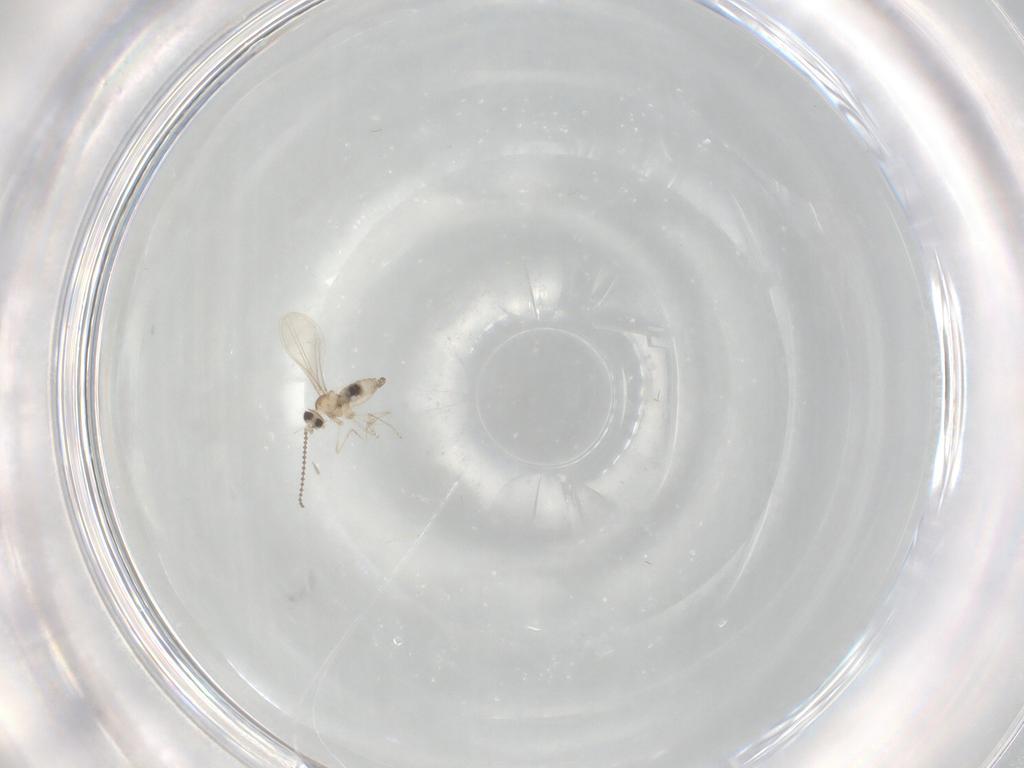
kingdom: Animalia
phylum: Arthropoda
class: Insecta
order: Diptera
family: Cecidomyiidae
